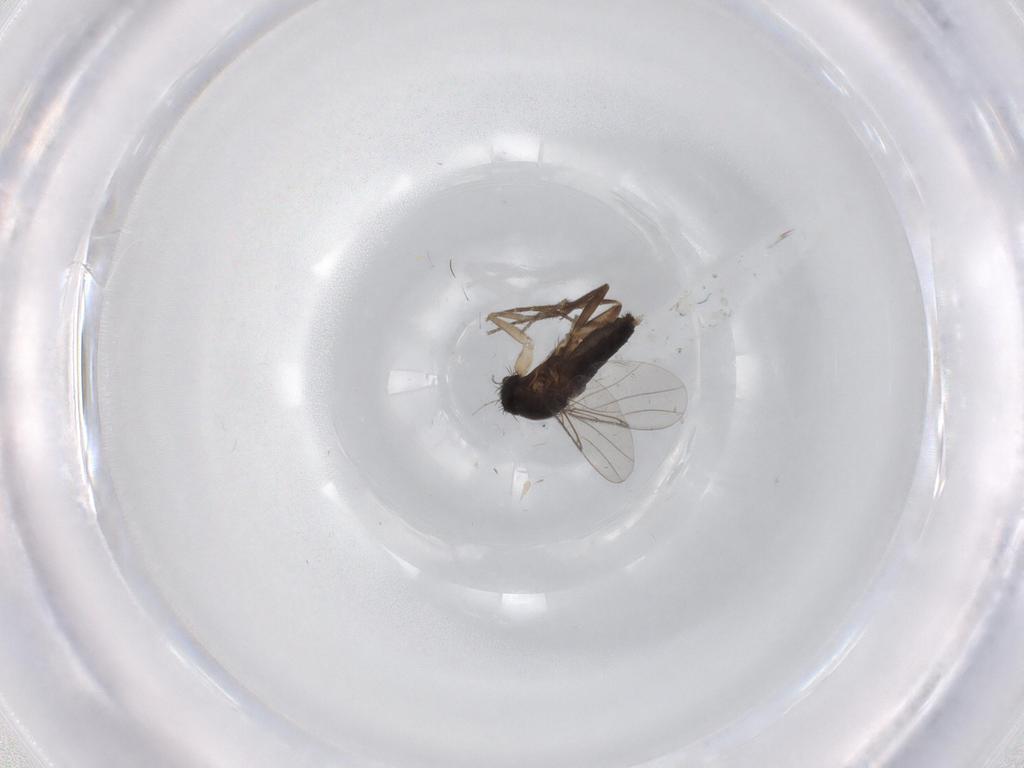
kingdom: Animalia
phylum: Arthropoda
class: Insecta
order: Diptera
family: Phoridae
